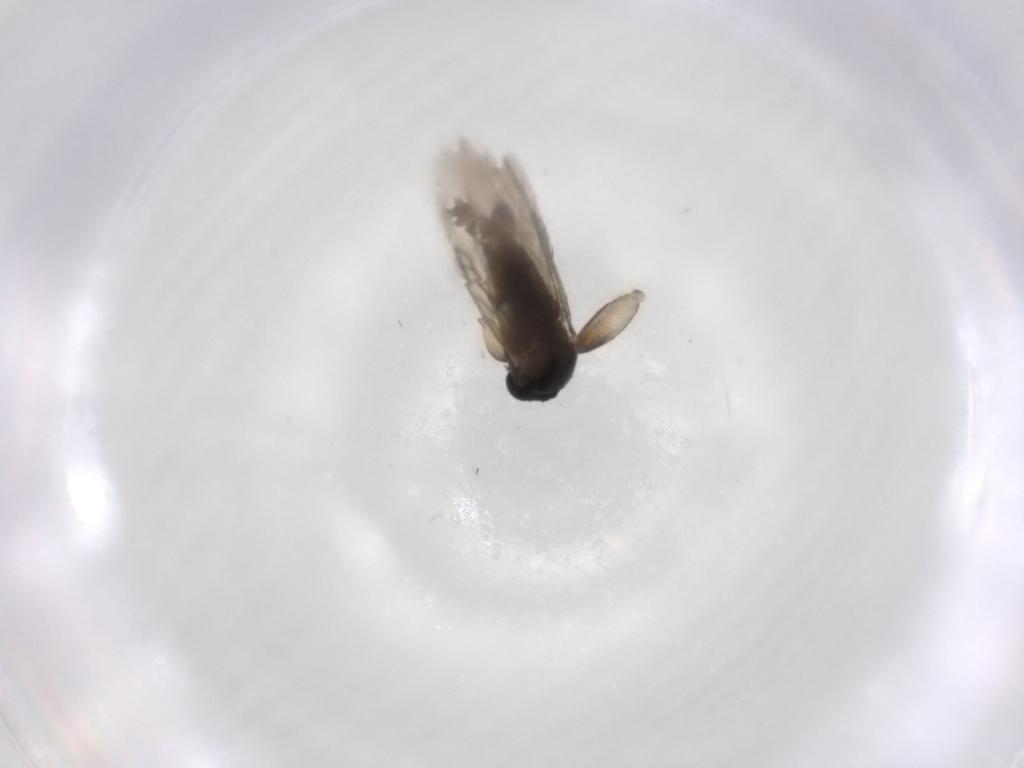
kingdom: Animalia
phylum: Arthropoda
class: Insecta
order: Diptera
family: Phoridae
